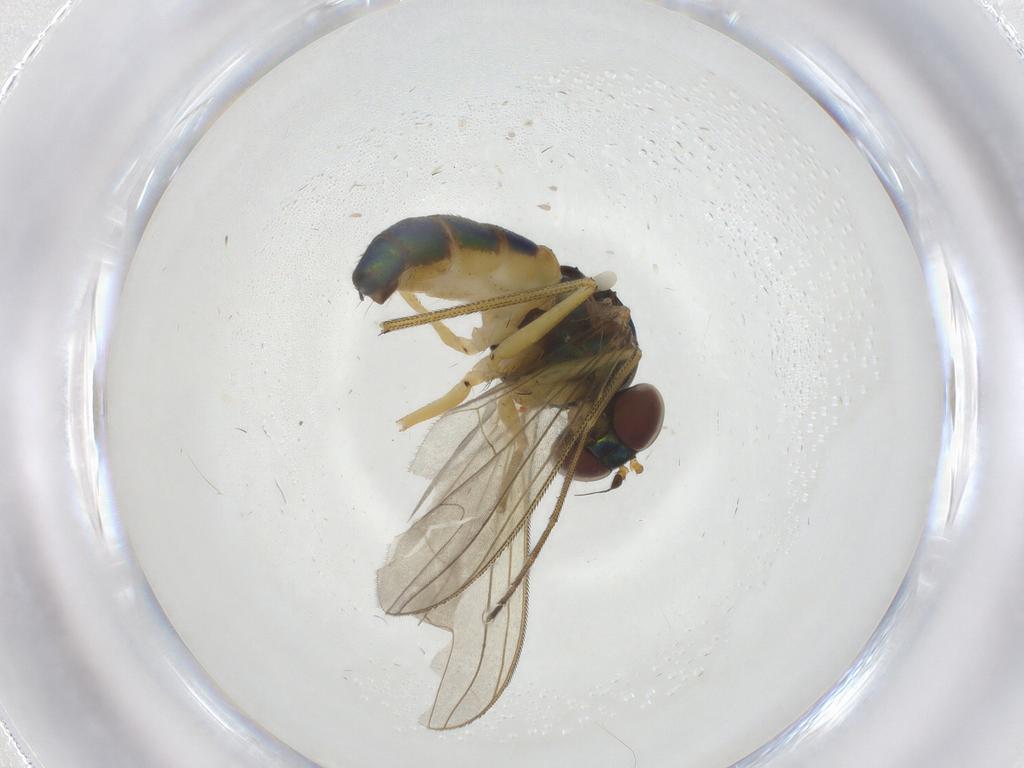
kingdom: Animalia
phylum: Arthropoda
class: Insecta
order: Diptera
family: Dolichopodidae
